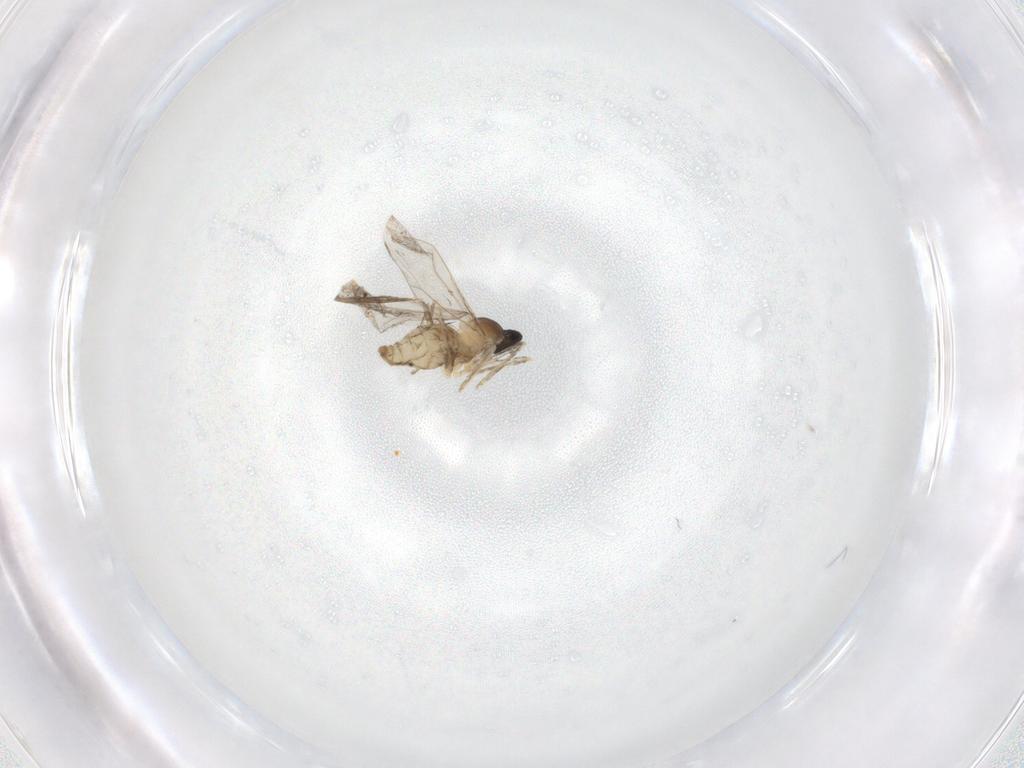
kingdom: Animalia
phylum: Arthropoda
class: Insecta
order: Diptera
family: Cecidomyiidae
